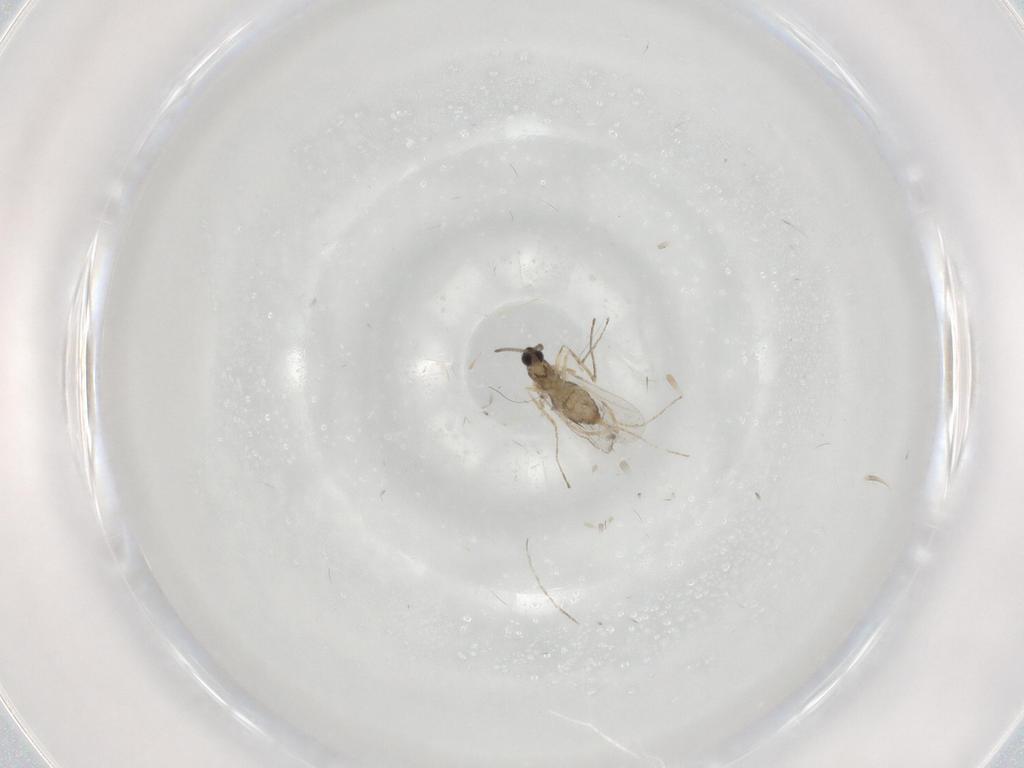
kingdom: Animalia
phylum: Arthropoda
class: Insecta
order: Diptera
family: Cecidomyiidae
